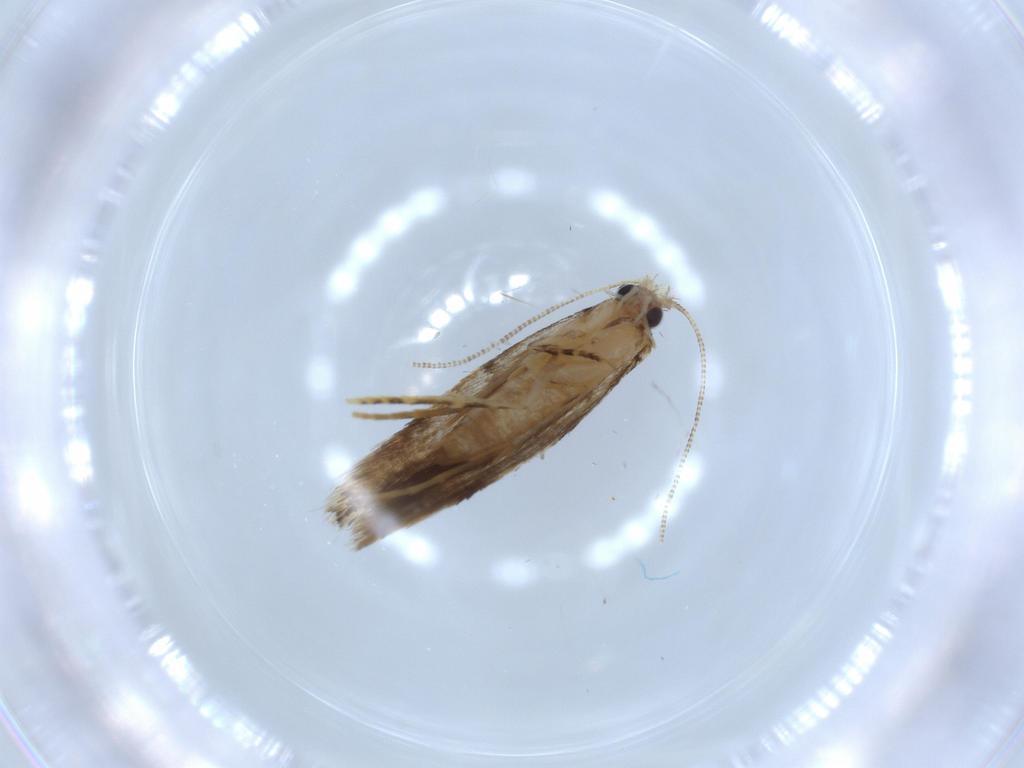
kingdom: Animalia
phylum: Arthropoda
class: Insecta
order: Lepidoptera
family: Tineidae
